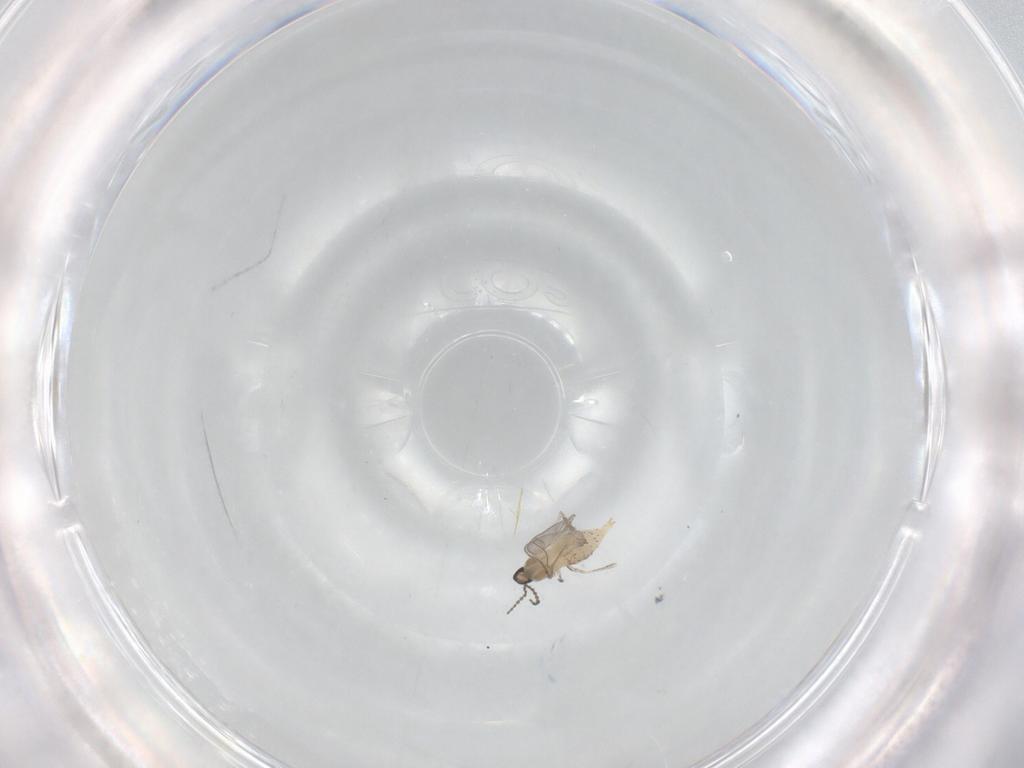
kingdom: Animalia
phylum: Arthropoda
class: Insecta
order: Diptera
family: Cecidomyiidae
